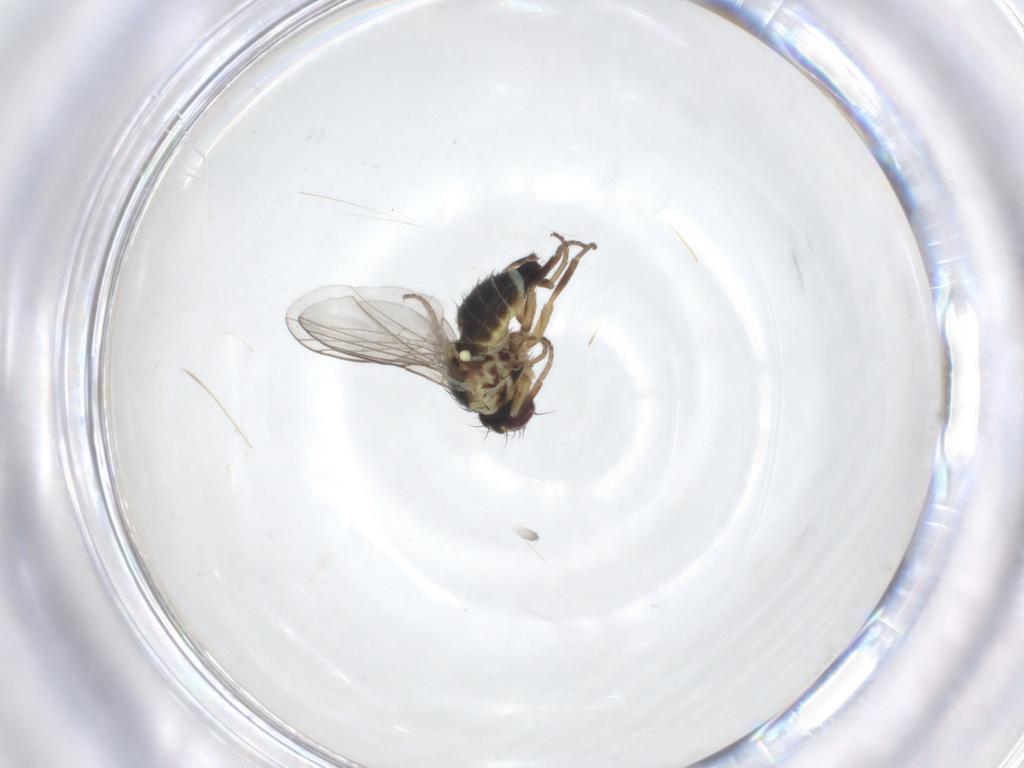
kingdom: Animalia
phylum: Arthropoda
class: Insecta
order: Diptera
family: Agromyzidae
